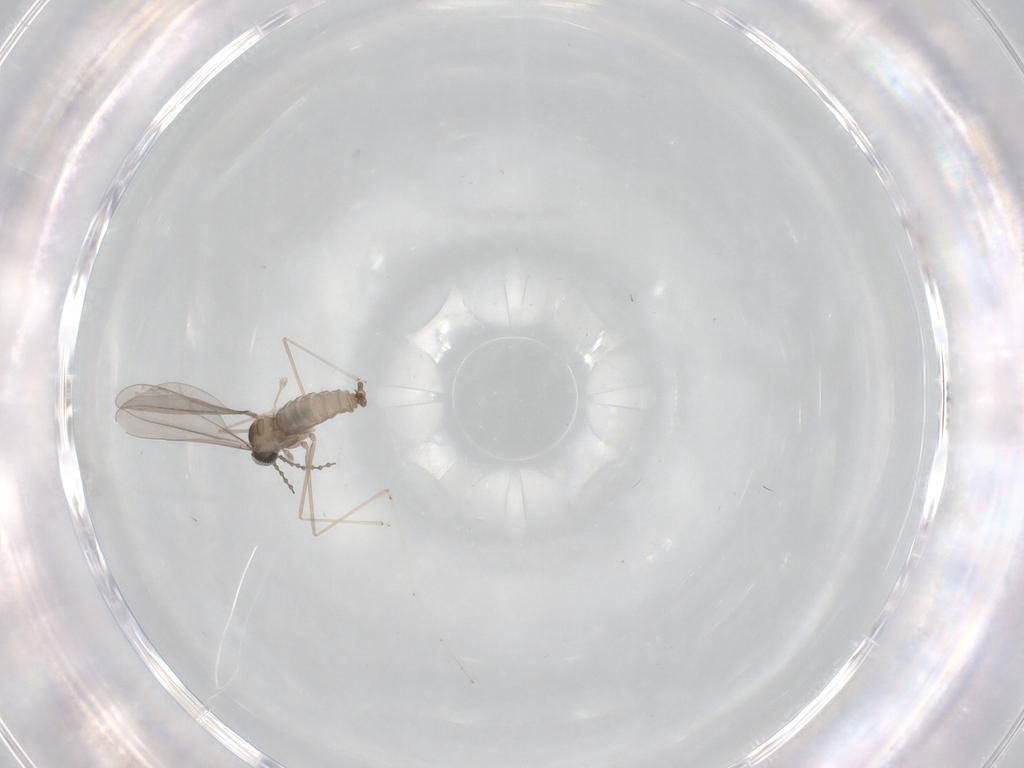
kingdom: Animalia
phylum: Arthropoda
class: Insecta
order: Diptera
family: Cecidomyiidae
